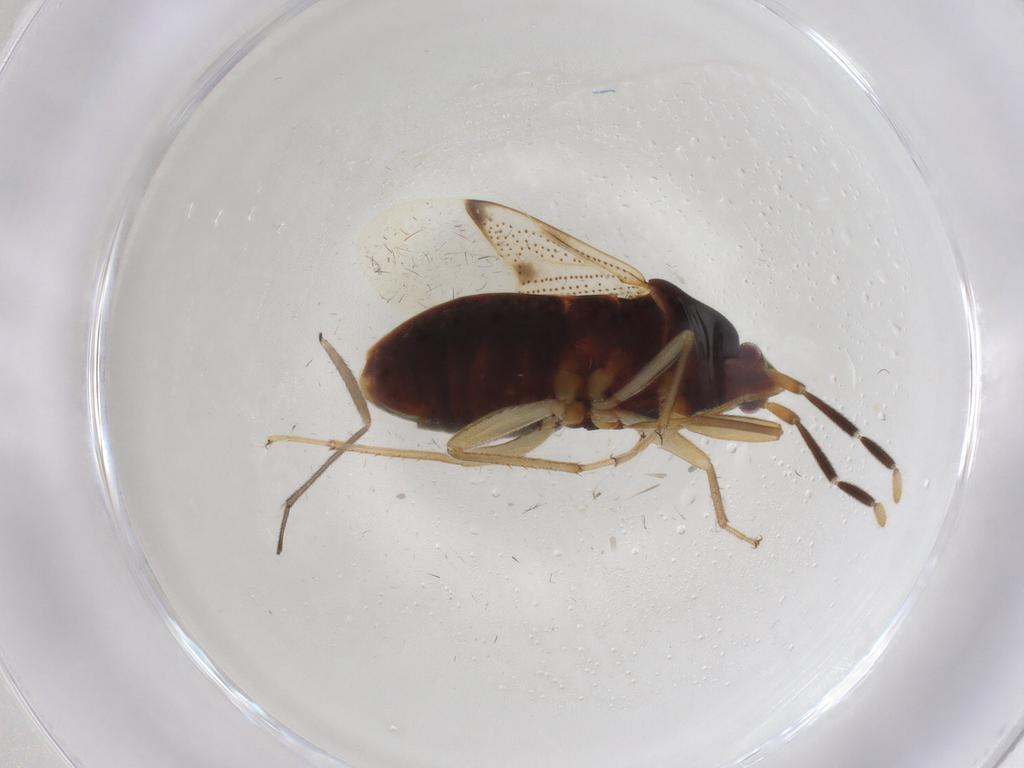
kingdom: Animalia
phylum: Arthropoda
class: Insecta
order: Hemiptera
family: Rhyparochromidae
